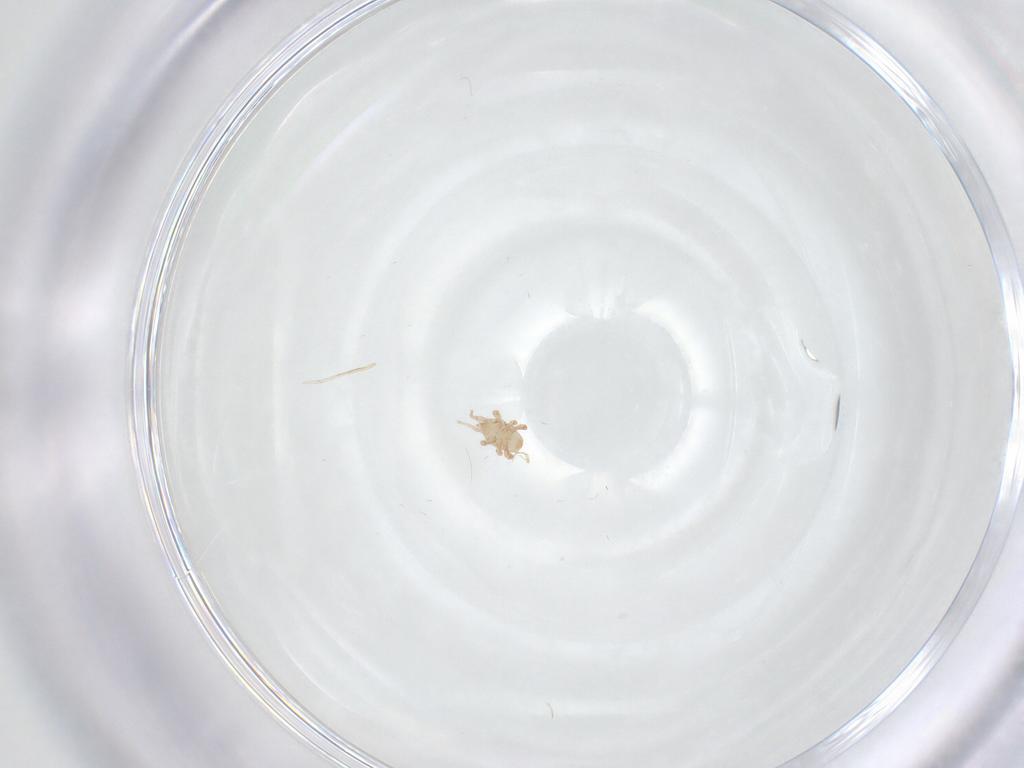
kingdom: Animalia
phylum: Arthropoda
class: Arachnida
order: Mesostigmata
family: Halolaelapidae
